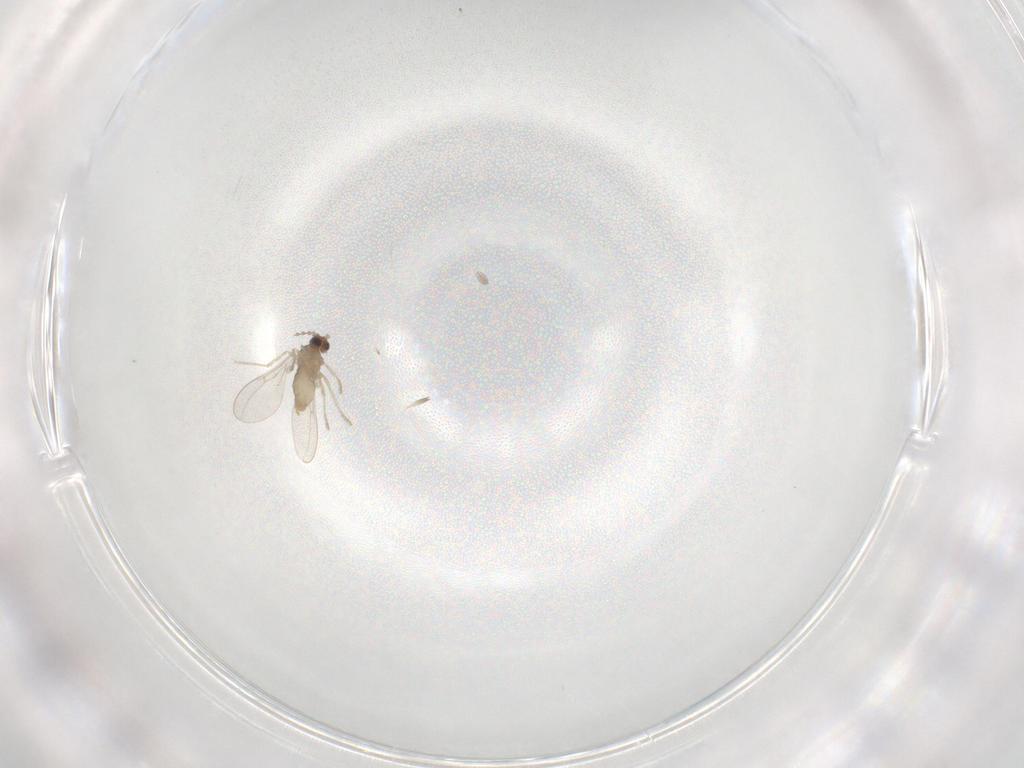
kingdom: Animalia
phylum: Arthropoda
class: Insecta
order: Diptera
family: Cecidomyiidae
